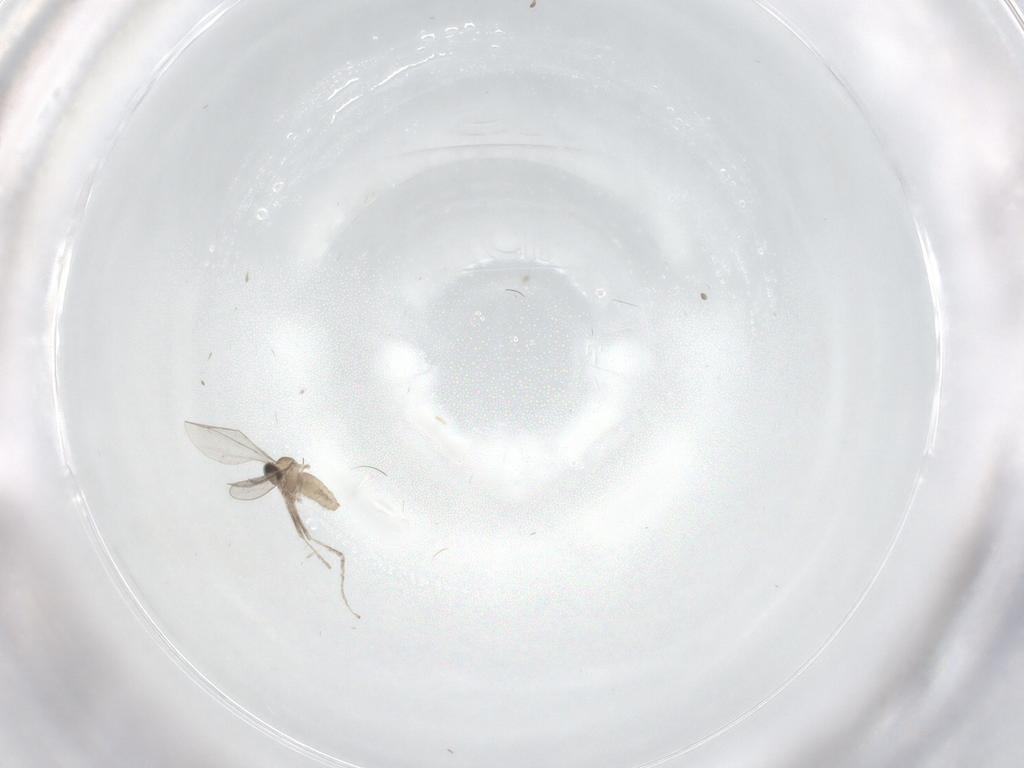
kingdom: Animalia
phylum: Arthropoda
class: Insecta
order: Diptera
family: Cecidomyiidae
